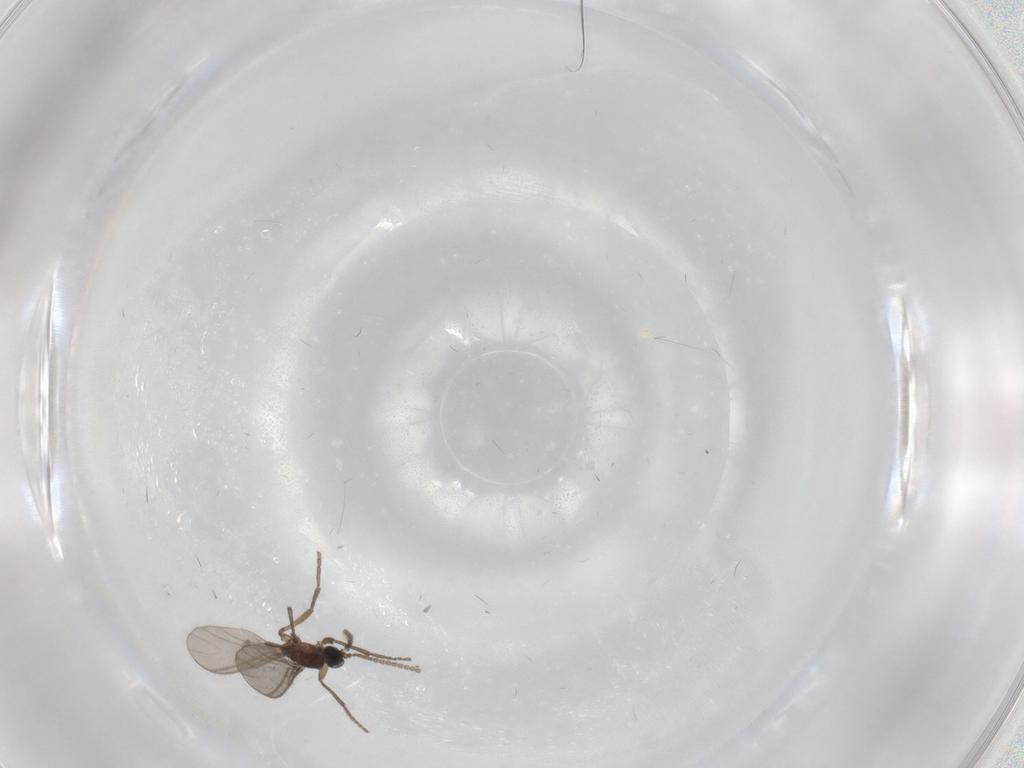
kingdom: Animalia
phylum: Arthropoda
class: Insecta
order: Diptera
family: Sciaridae
